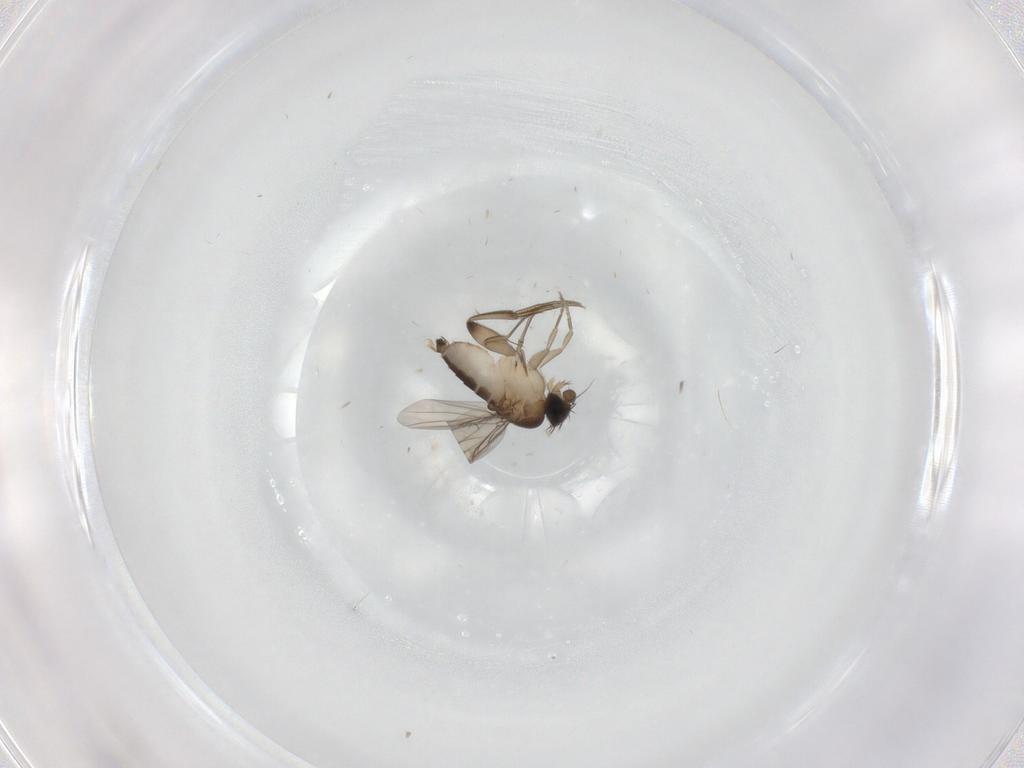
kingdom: Animalia
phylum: Arthropoda
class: Insecta
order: Diptera
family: Phoridae
